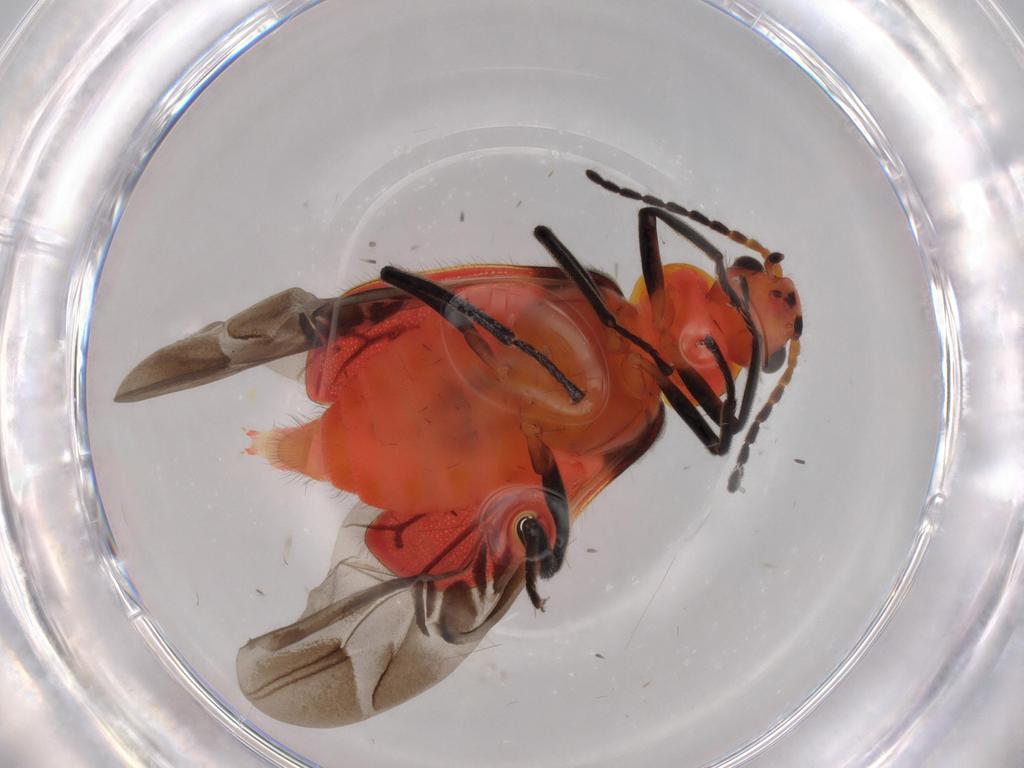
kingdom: Animalia
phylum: Arthropoda
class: Insecta
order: Coleoptera
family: Melyridae
